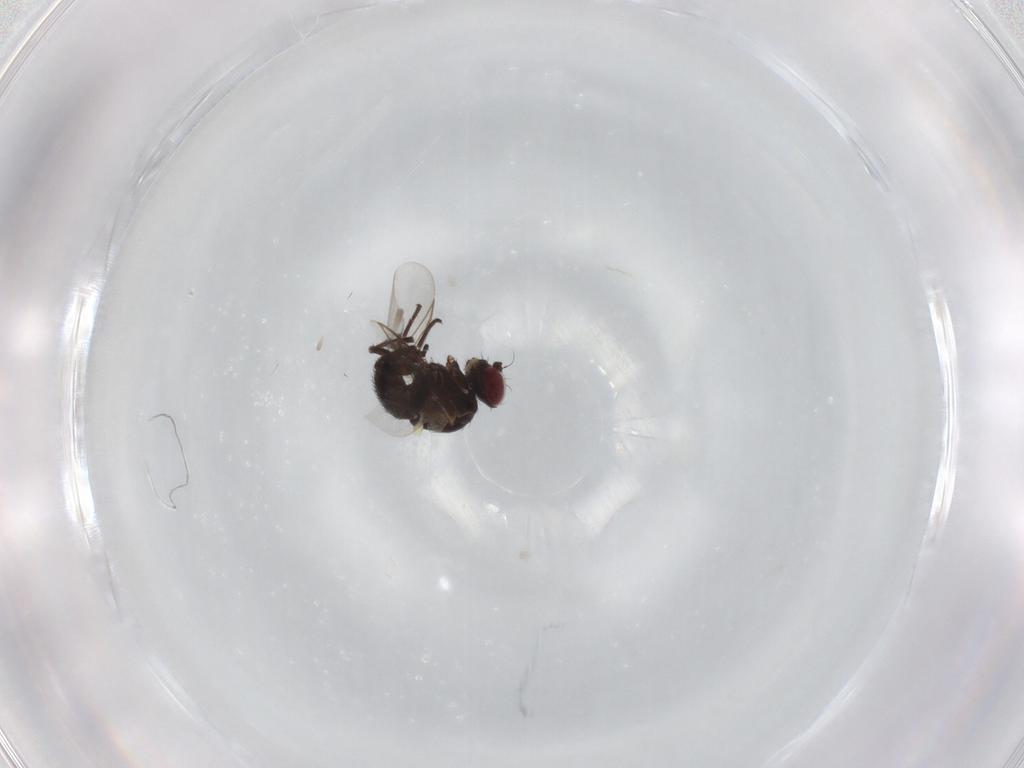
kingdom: Animalia
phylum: Arthropoda
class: Insecta
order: Diptera
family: Agromyzidae
